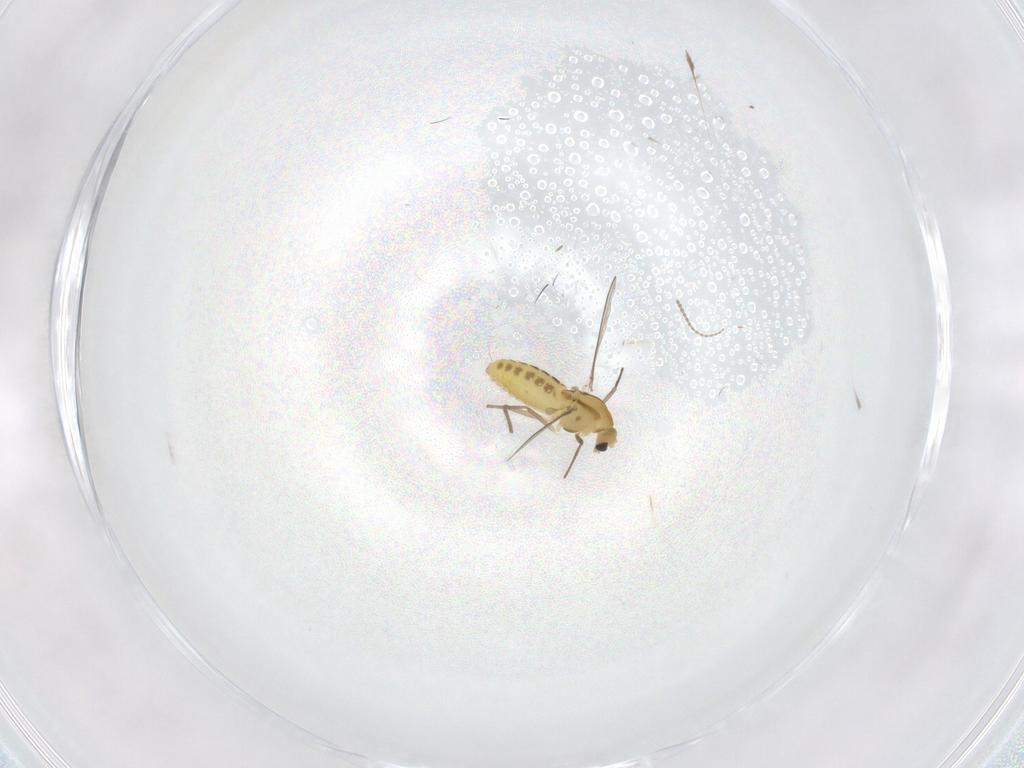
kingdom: Animalia
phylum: Arthropoda
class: Insecta
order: Diptera
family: Chironomidae
